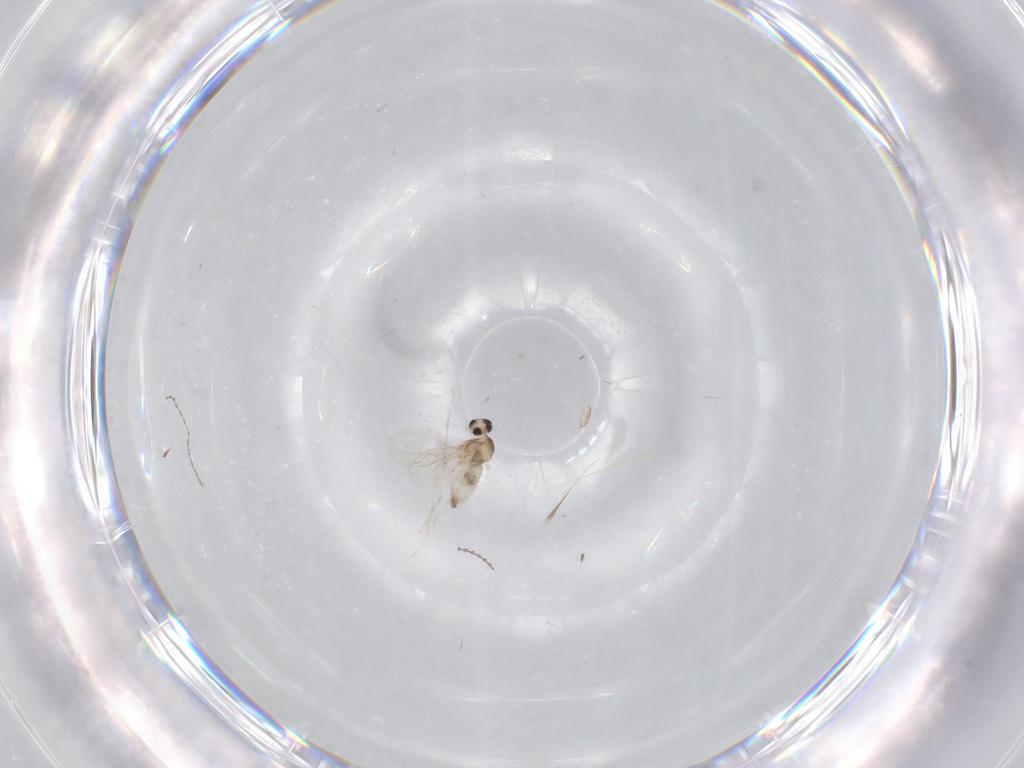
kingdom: Animalia
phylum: Arthropoda
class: Insecta
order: Diptera
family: Cecidomyiidae
